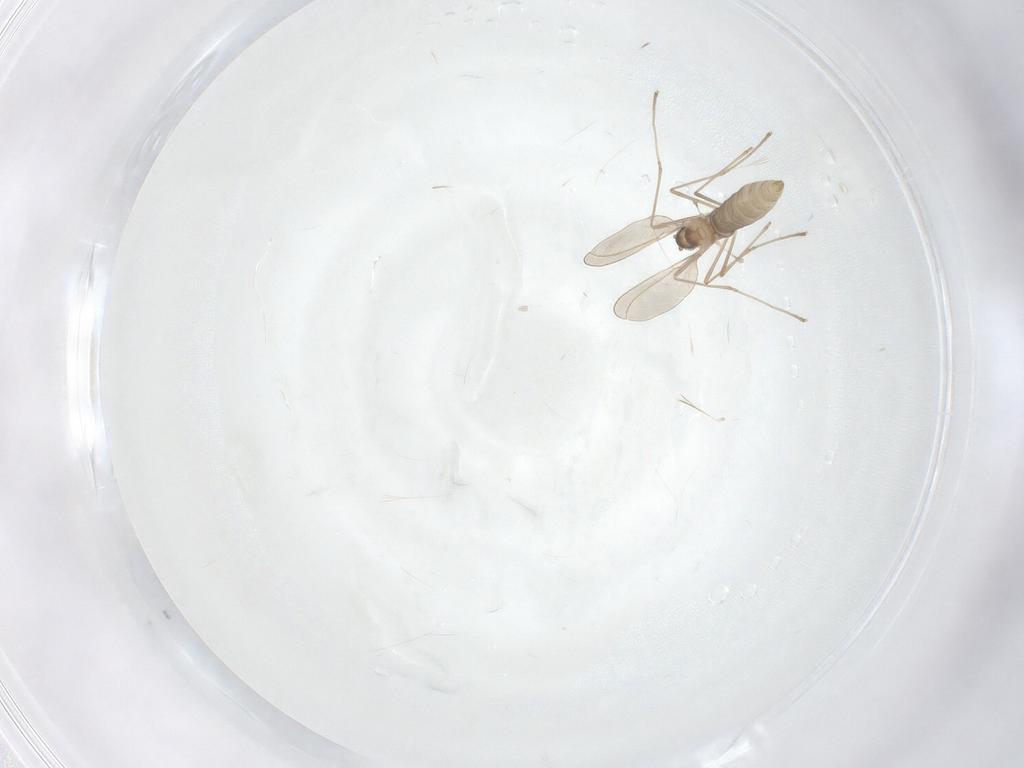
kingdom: Animalia
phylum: Arthropoda
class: Insecta
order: Diptera
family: Cecidomyiidae
